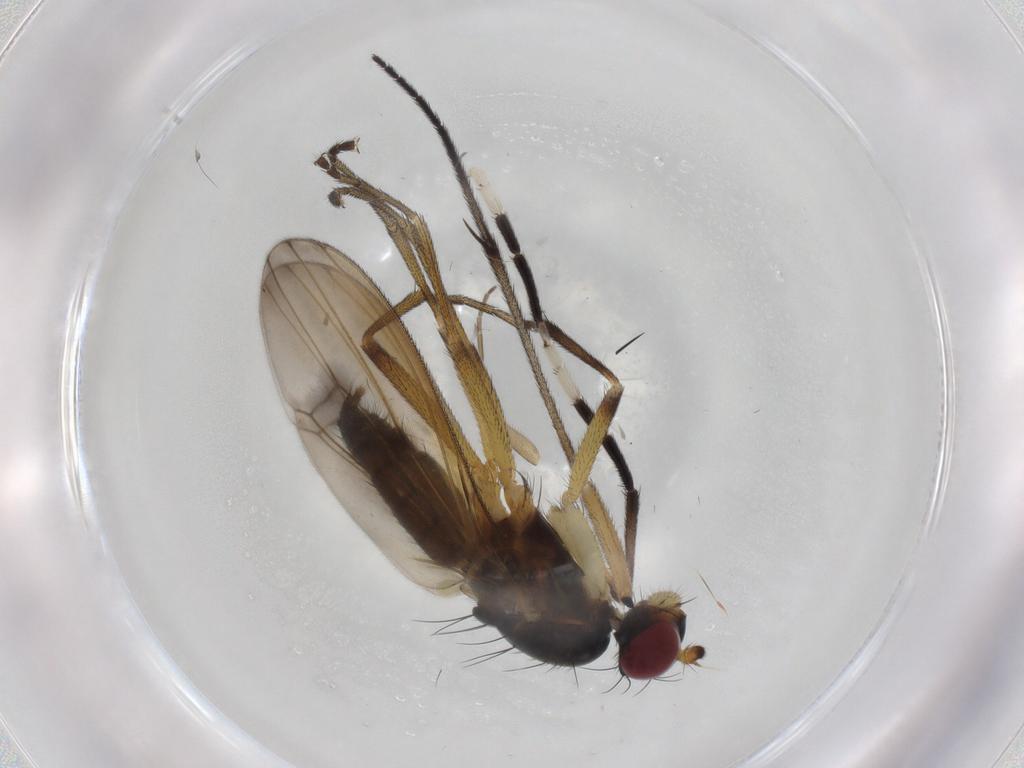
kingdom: Animalia
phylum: Arthropoda
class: Insecta
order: Diptera
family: Sciomyzidae
